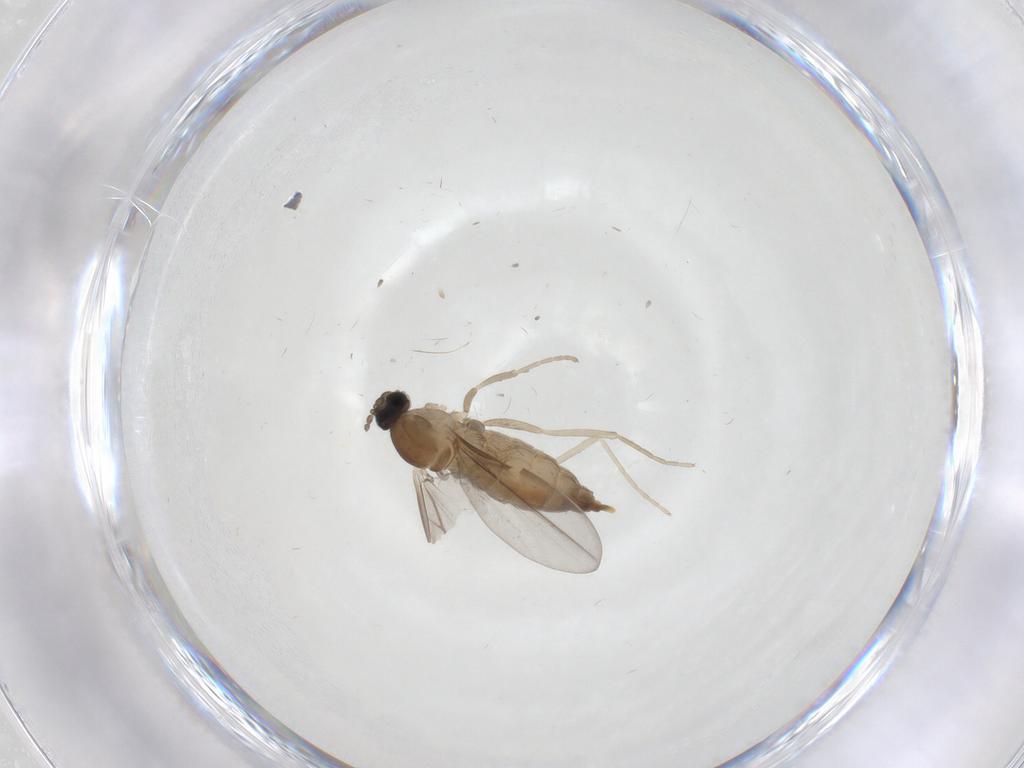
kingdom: Animalia
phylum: Arthropoda
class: Insecta
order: Diptera
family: Cecidomyiidae
